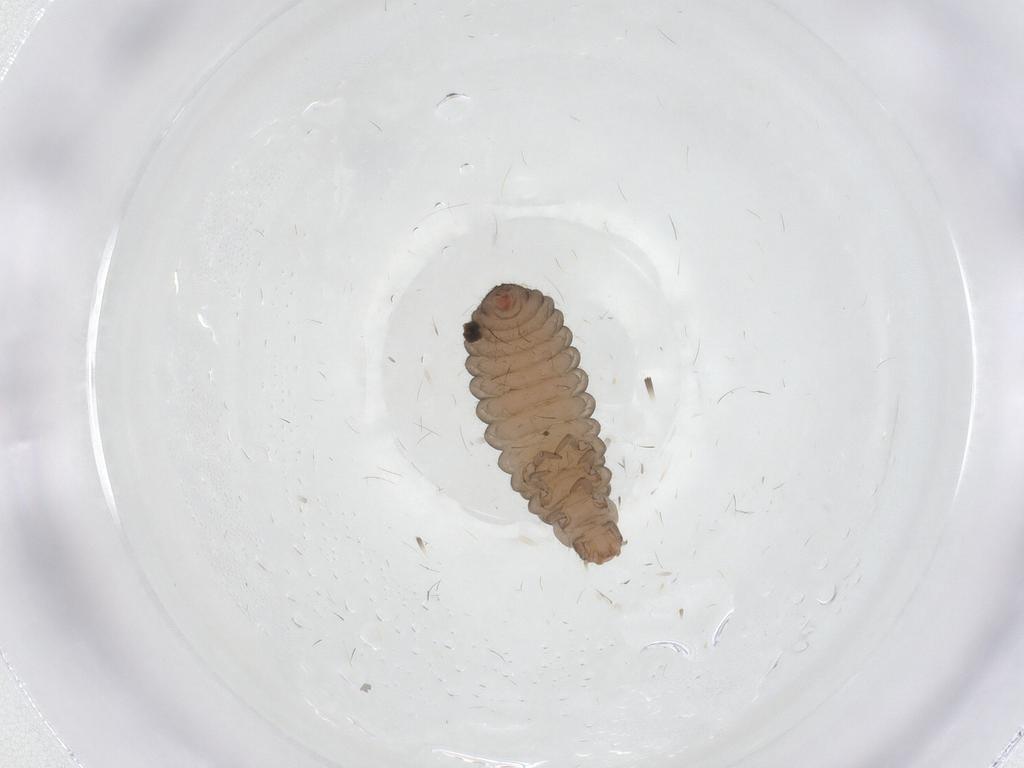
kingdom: Animalia
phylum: Arthropoda
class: Insecta
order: Coleoptera
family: Coccinellidae
